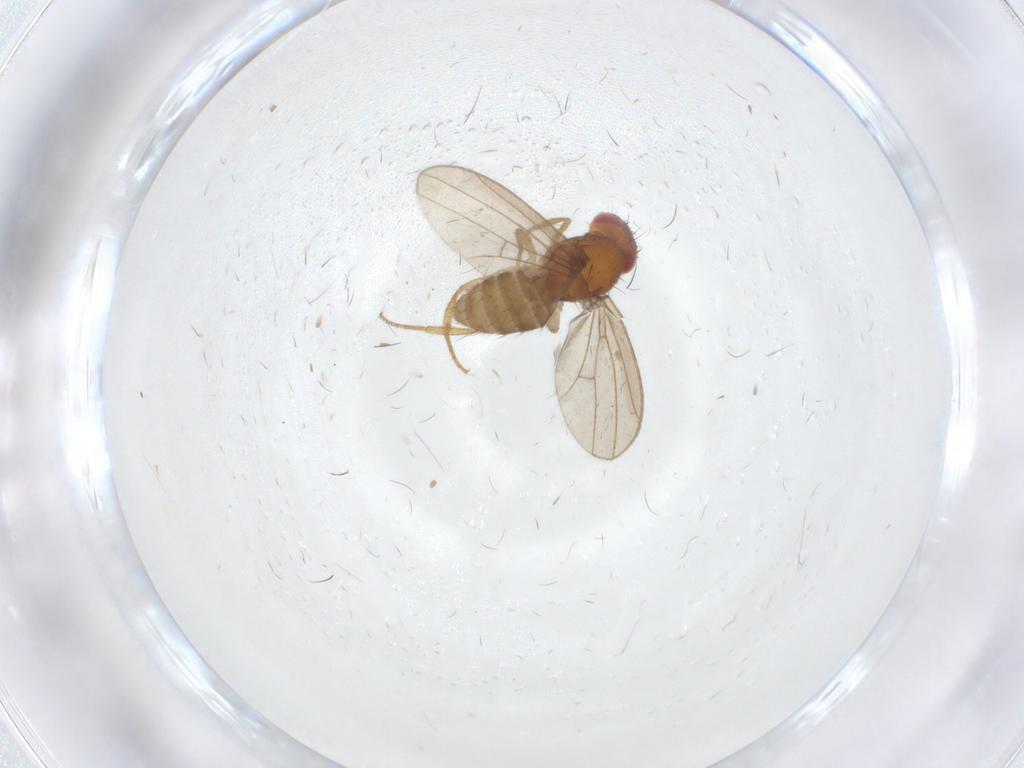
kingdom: Animalia
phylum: Arthropoda
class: Insecta
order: Diptera
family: Drosophilidae
